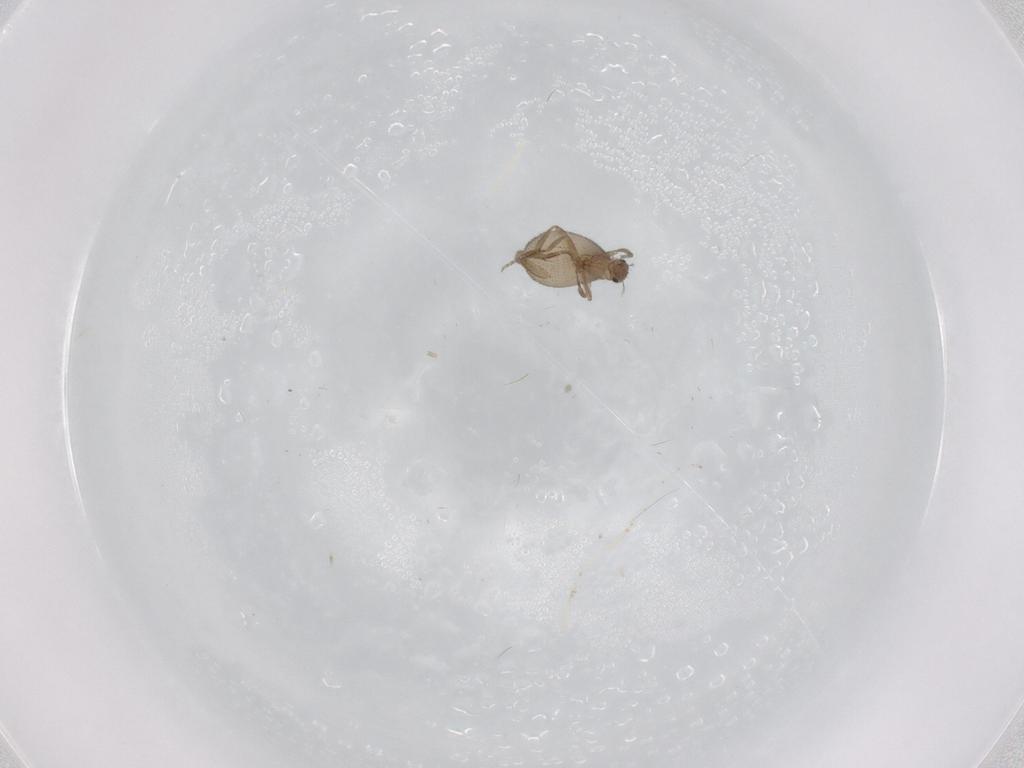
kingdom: Animalia
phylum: Arthropoda
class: Insecta
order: Diptera
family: Phoridae
